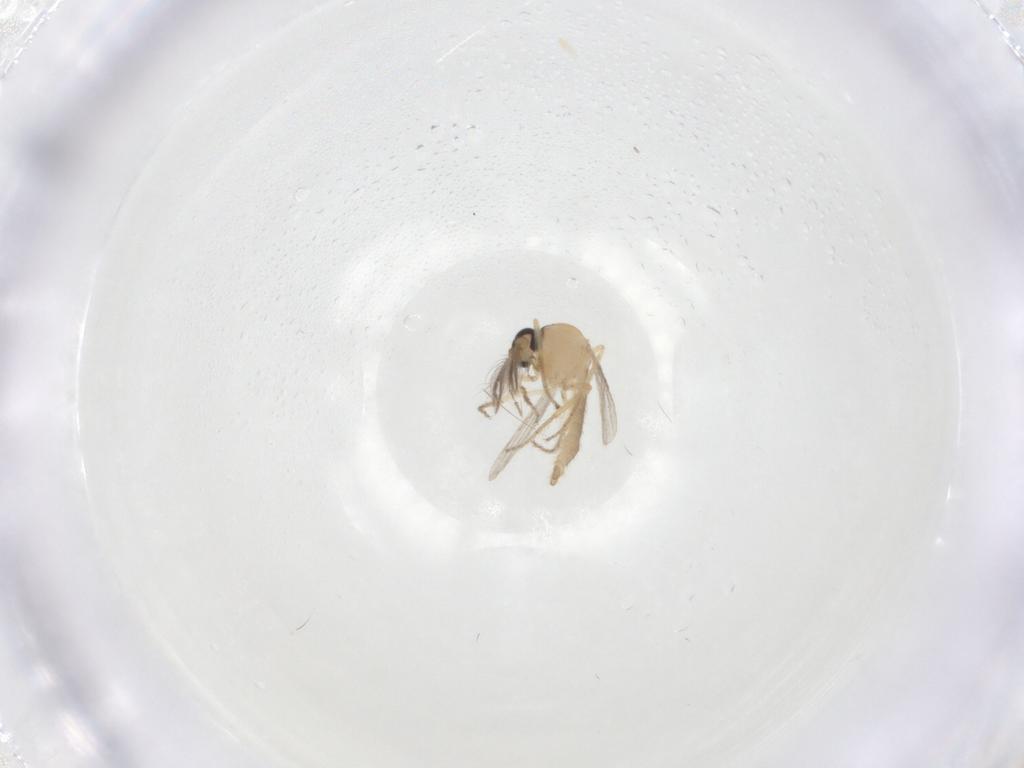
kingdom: Animalia
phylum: Arthropoda
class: Insecta
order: Diptera
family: Ceratopogonidae
